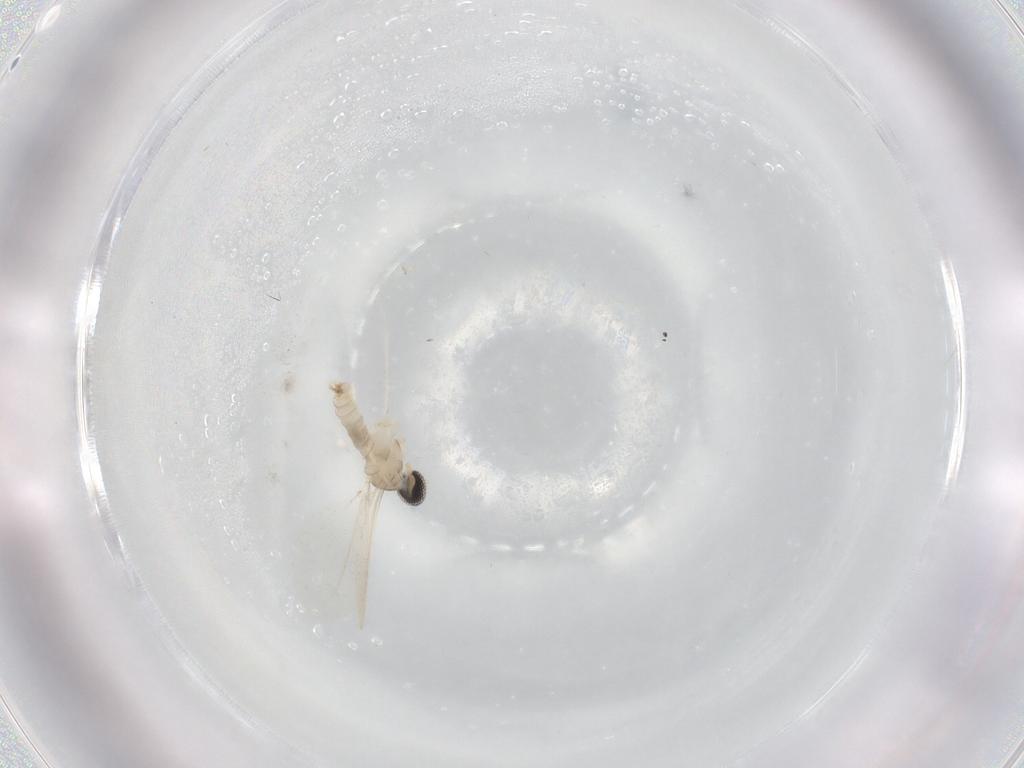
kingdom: Animalia
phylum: Arthropoda
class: Insecta
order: Diptera
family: Cecidomyiidae
